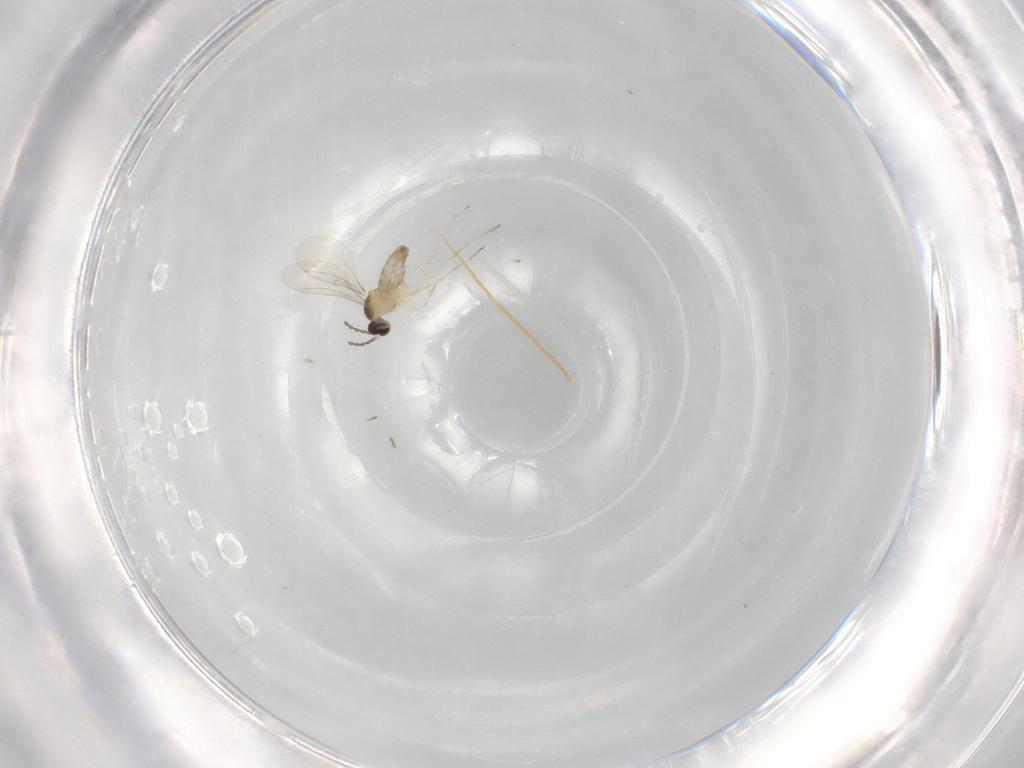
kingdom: Animalia
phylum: Arthropoda
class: Insecta
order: Diptera
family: Cecidomyiidae
